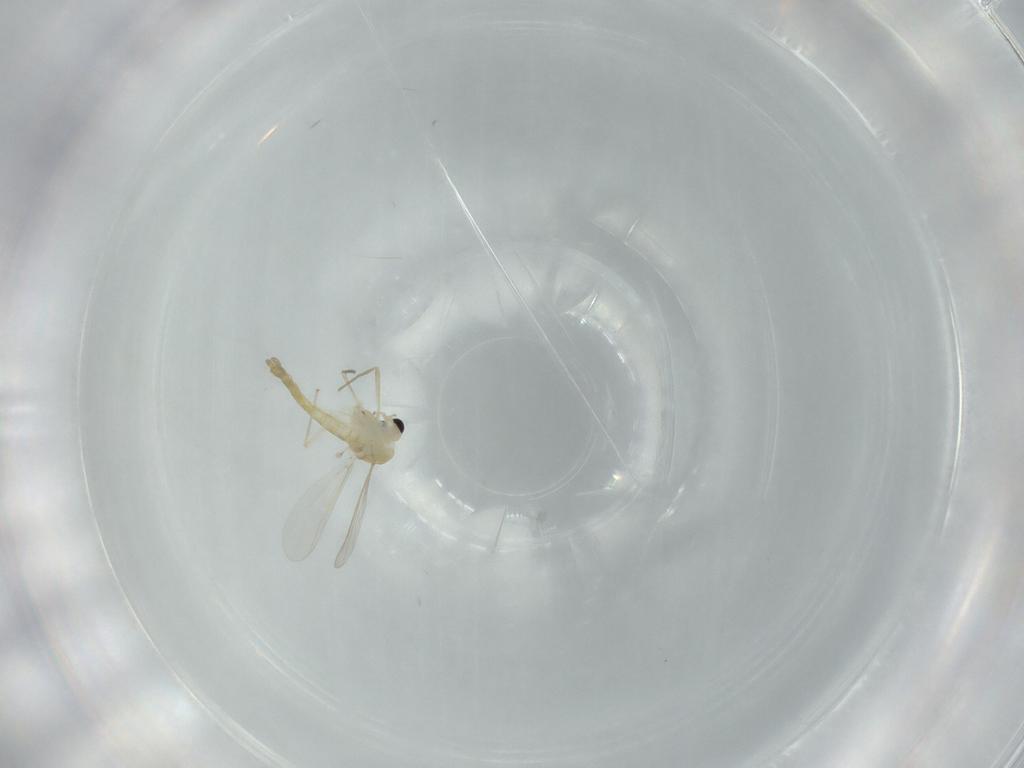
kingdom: Animalia
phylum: Arthropoda
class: Insecta
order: Diptera
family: Chironomidae
